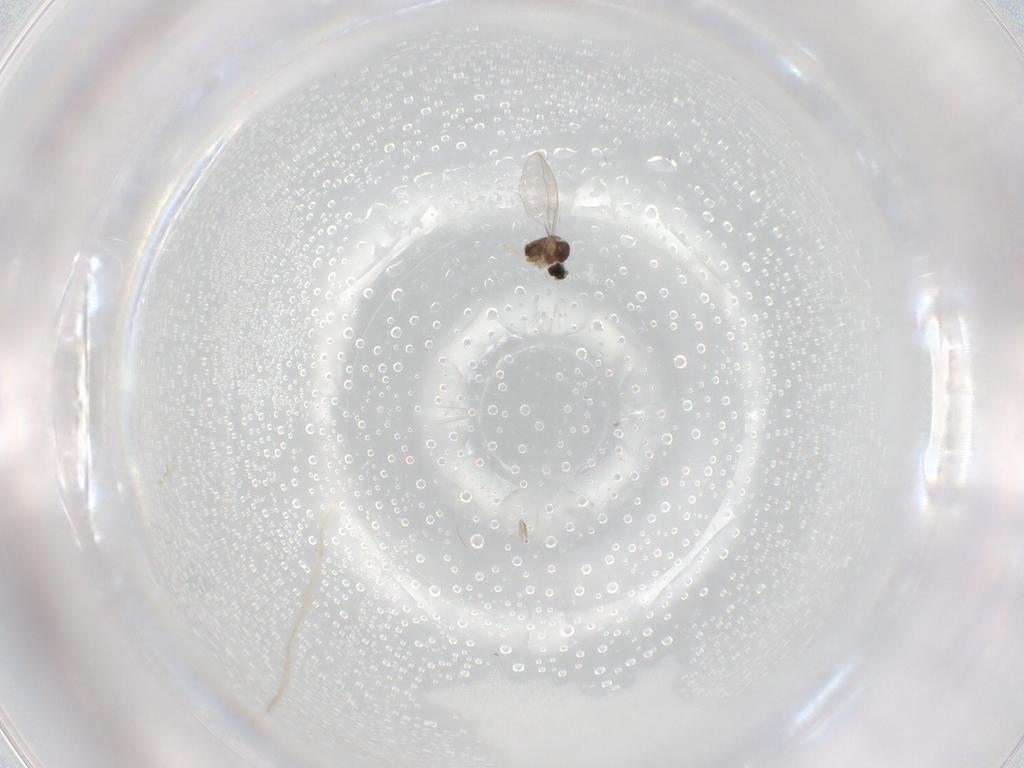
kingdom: Animalia
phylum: Arthropoda
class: Insecta
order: Diptera
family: Cecidomyiidae
